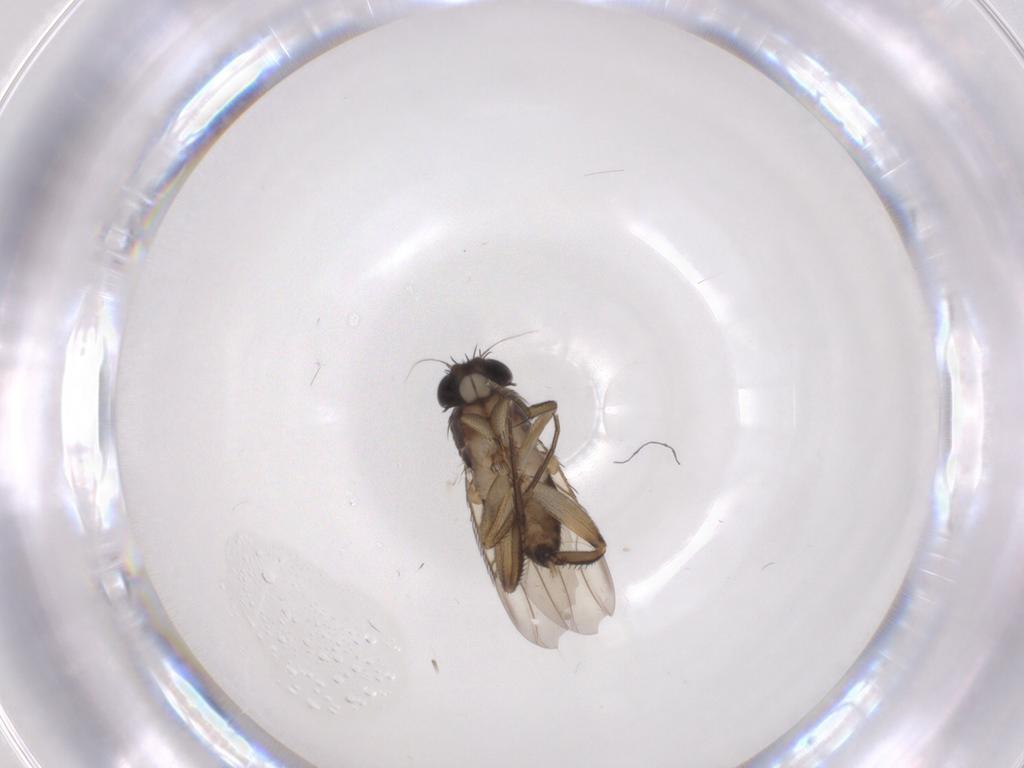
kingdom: Animalia
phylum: Arthropoda
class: Insecta
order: Diptera
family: Phoridae
